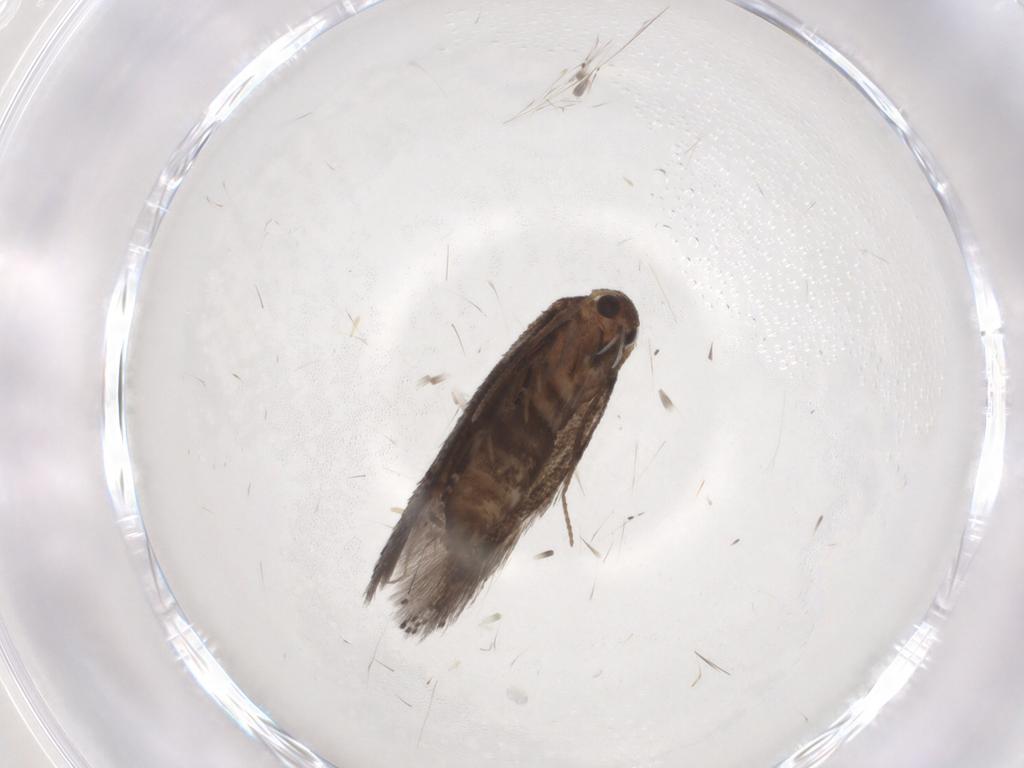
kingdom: Animalia
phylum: Arthropoda
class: Insecta
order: Lepidoptera
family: Elachistidae
